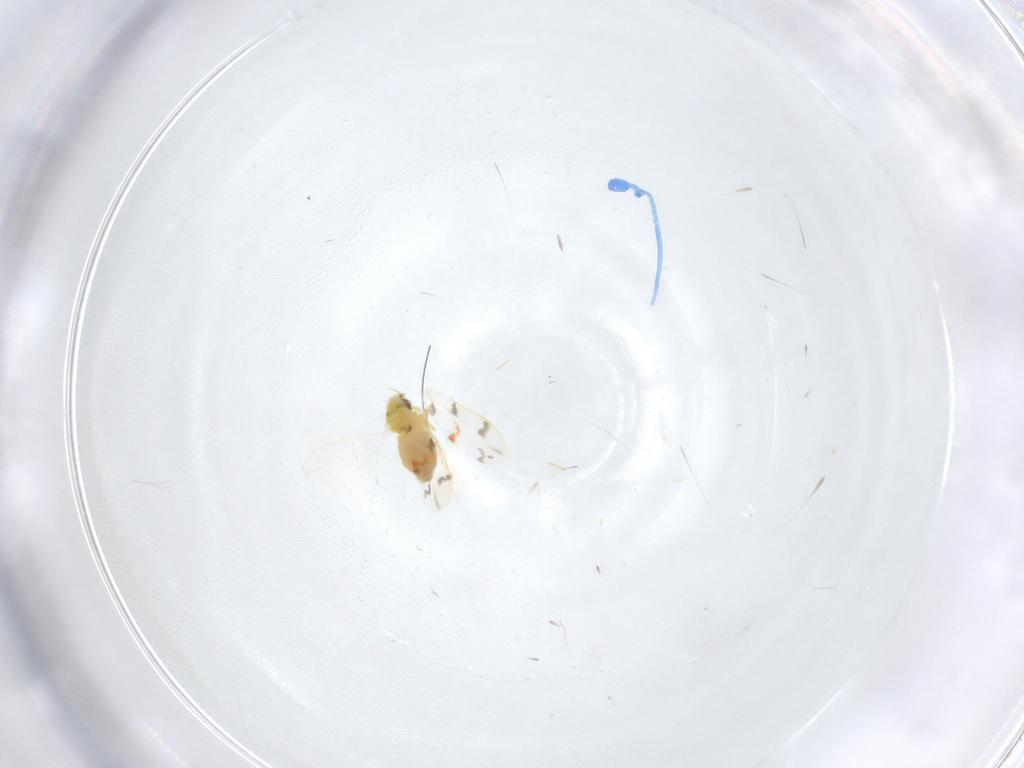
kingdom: Animalia
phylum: Arthropoda
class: Insecta
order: Hemiptera
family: Aleyrodidae
